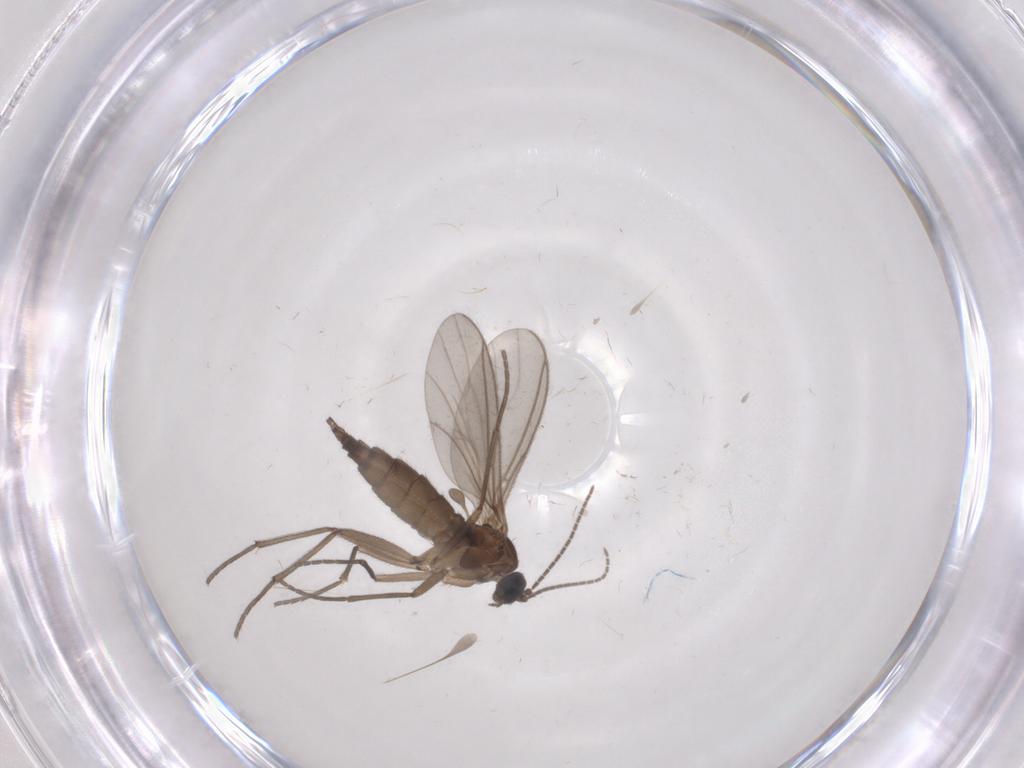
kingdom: Animalia
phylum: Arthropoda
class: Insecta
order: Diptera
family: Sciaridae
